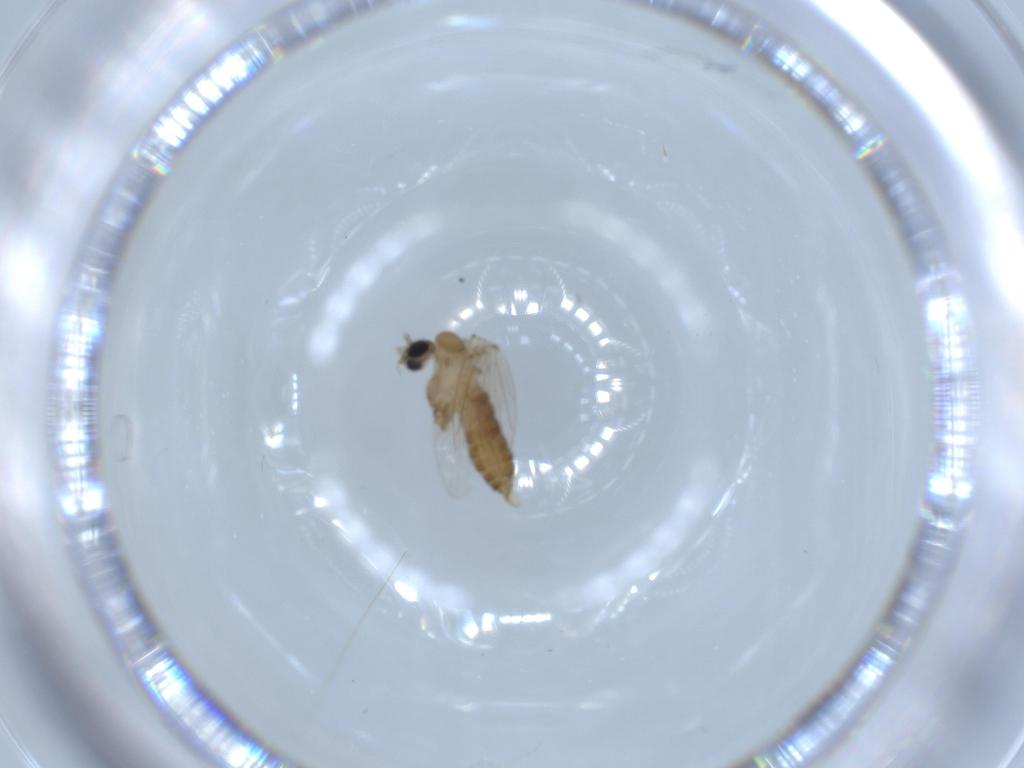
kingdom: Animalia
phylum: Arthropoda
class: Insecta
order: Diptera
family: Psychodidae
